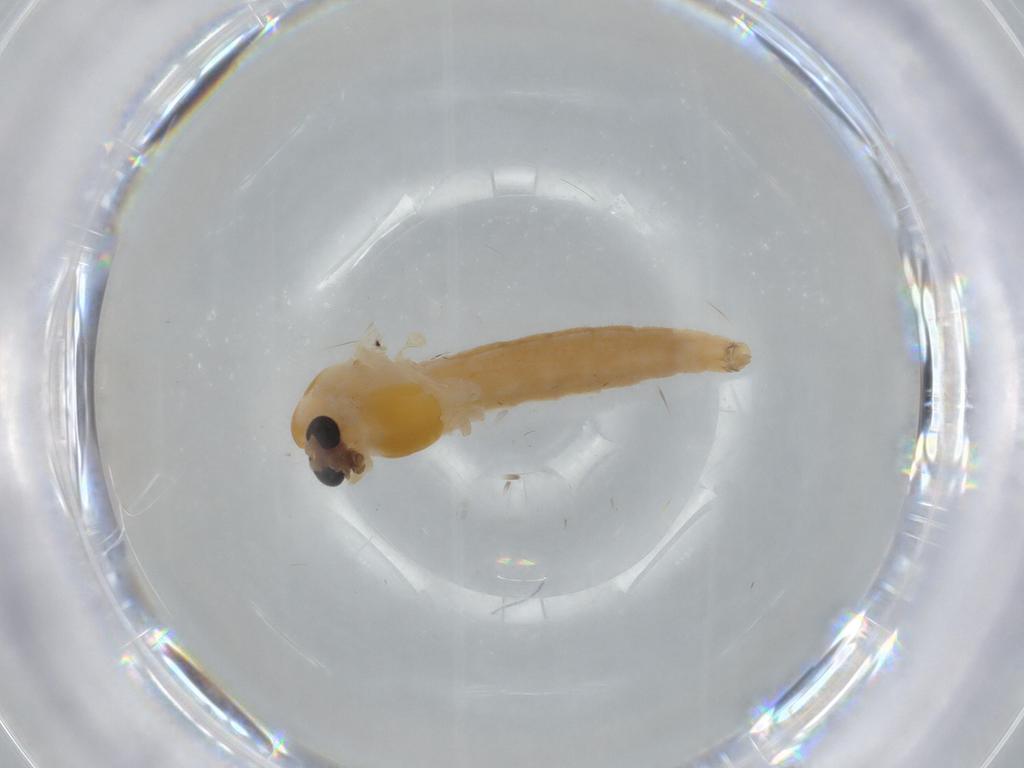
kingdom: Animalia
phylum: Arthropoda
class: Insecta
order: Diptera
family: Chironomidae
